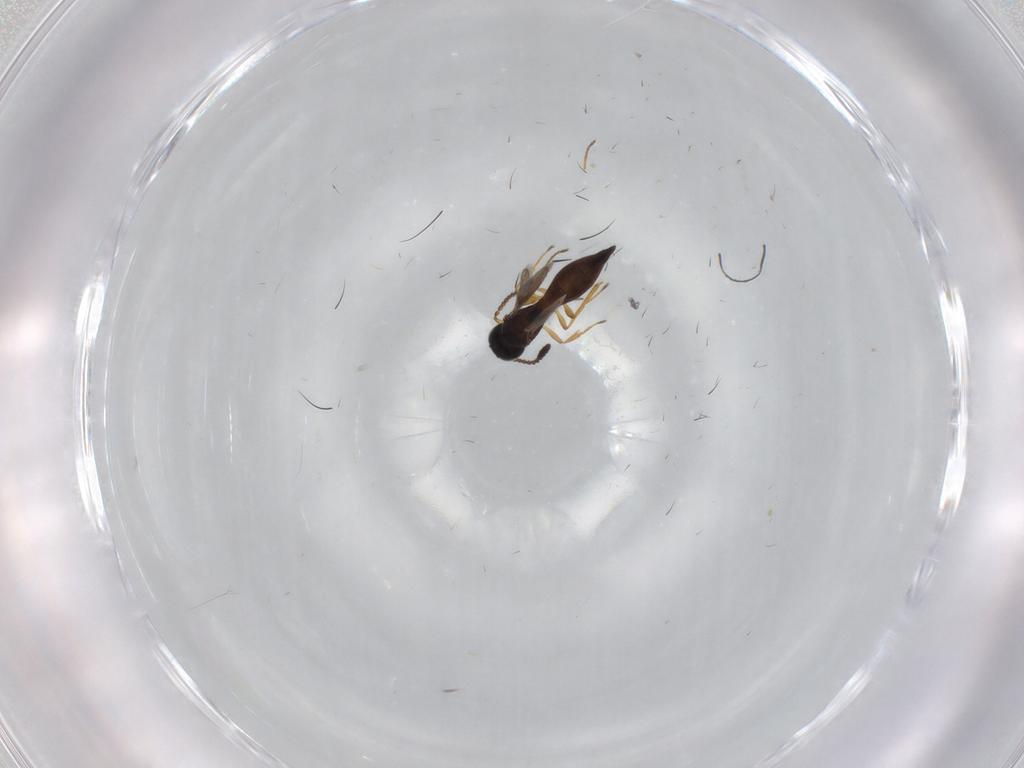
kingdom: Animalia
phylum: Arthropoda
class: Insecta
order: Hymenoptera
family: Scelionidae
